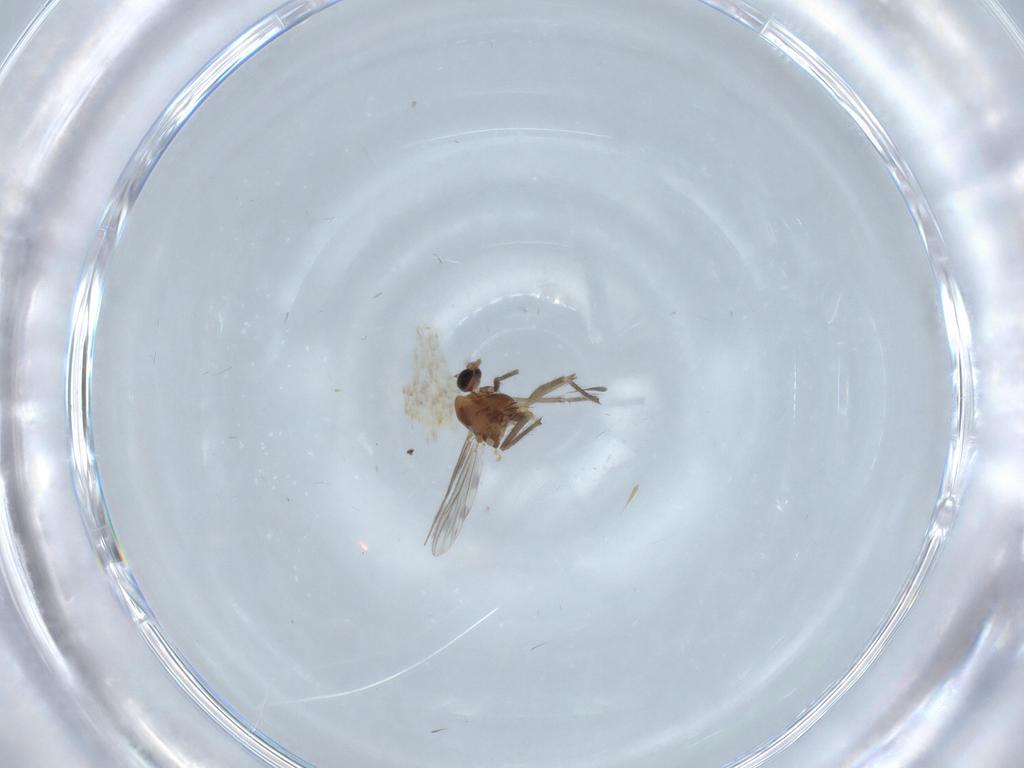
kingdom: Animalia
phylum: Arthropoda
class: Insecta
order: Diptera
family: Chironomidae
